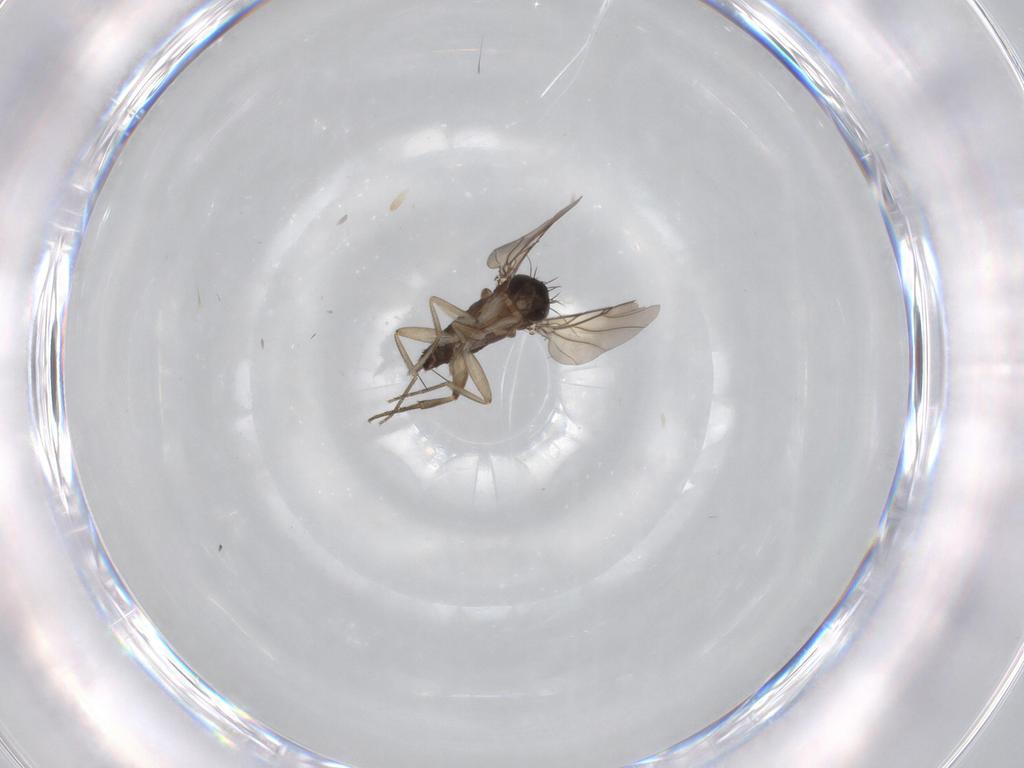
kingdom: Animalia
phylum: Arthropoda
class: Insecta
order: Diptera
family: Phoridae
